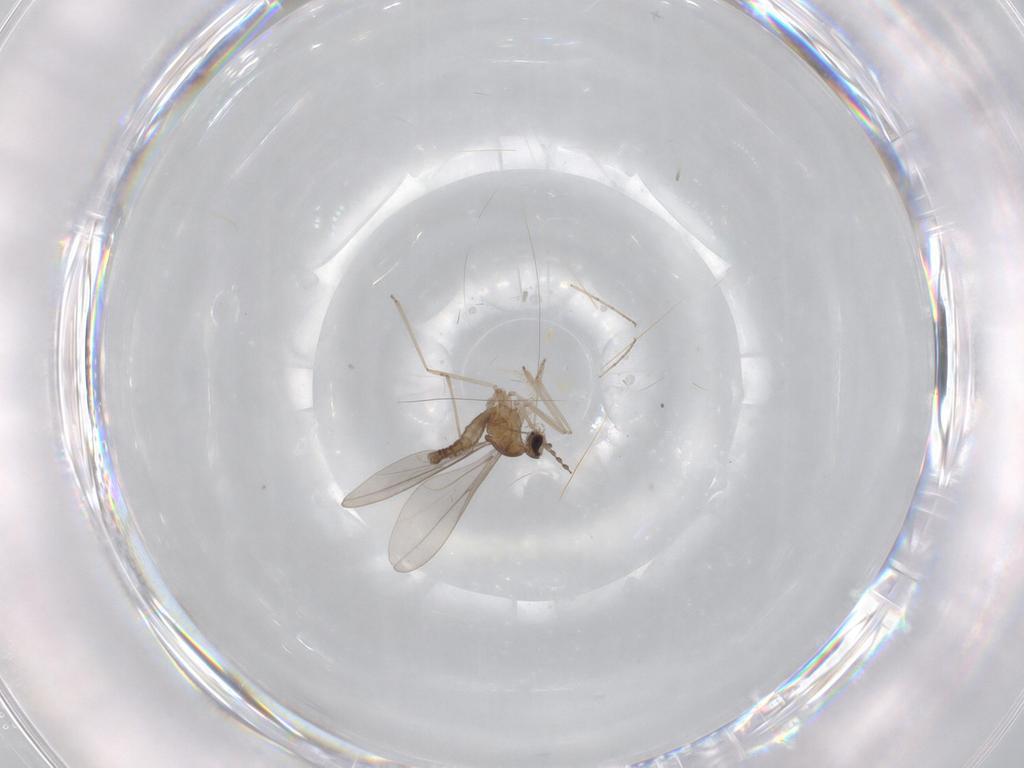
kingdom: Animalia
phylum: Arthropoda
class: Insecta
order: Diptera
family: Cecidomyiidae
